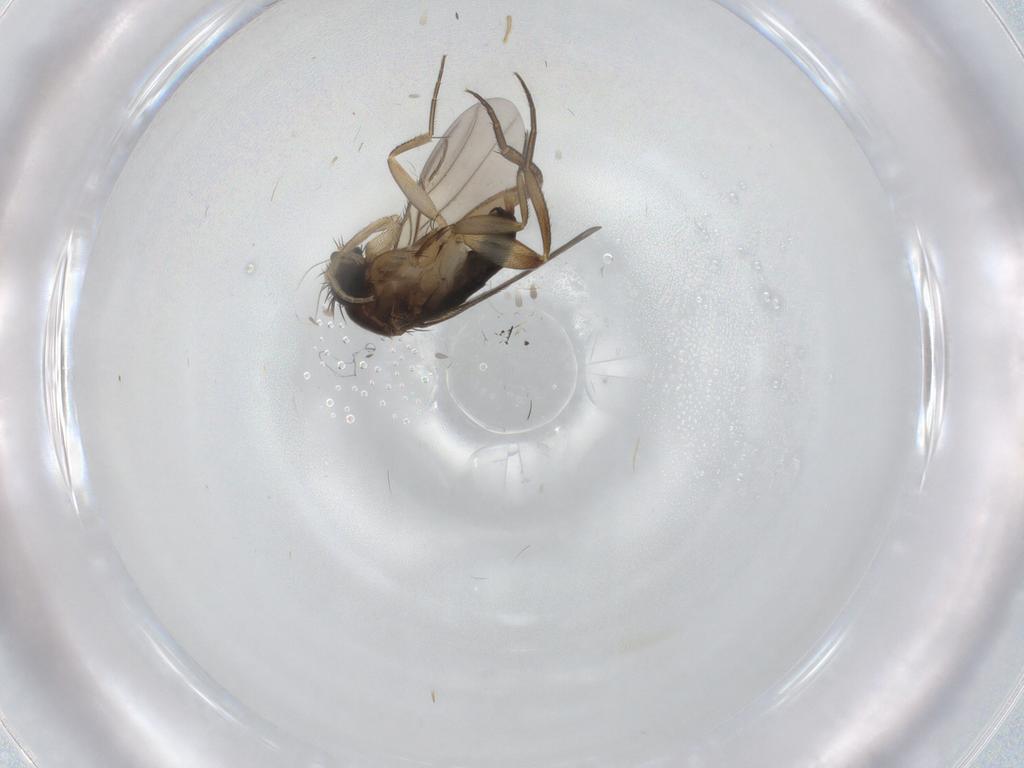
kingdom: Animalia
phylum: Arthropoda
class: Insecta
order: Diptera
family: Phoridae
